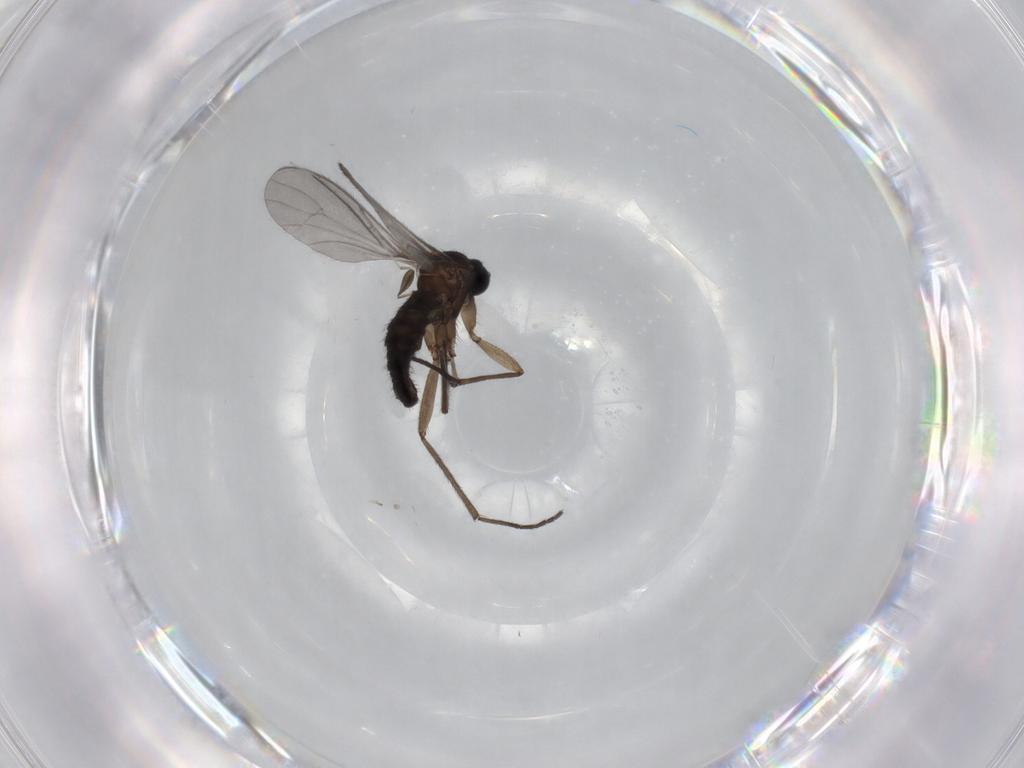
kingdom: Animalia
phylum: Arthropoda
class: Insecta
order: Diptera
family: Sciaridae
